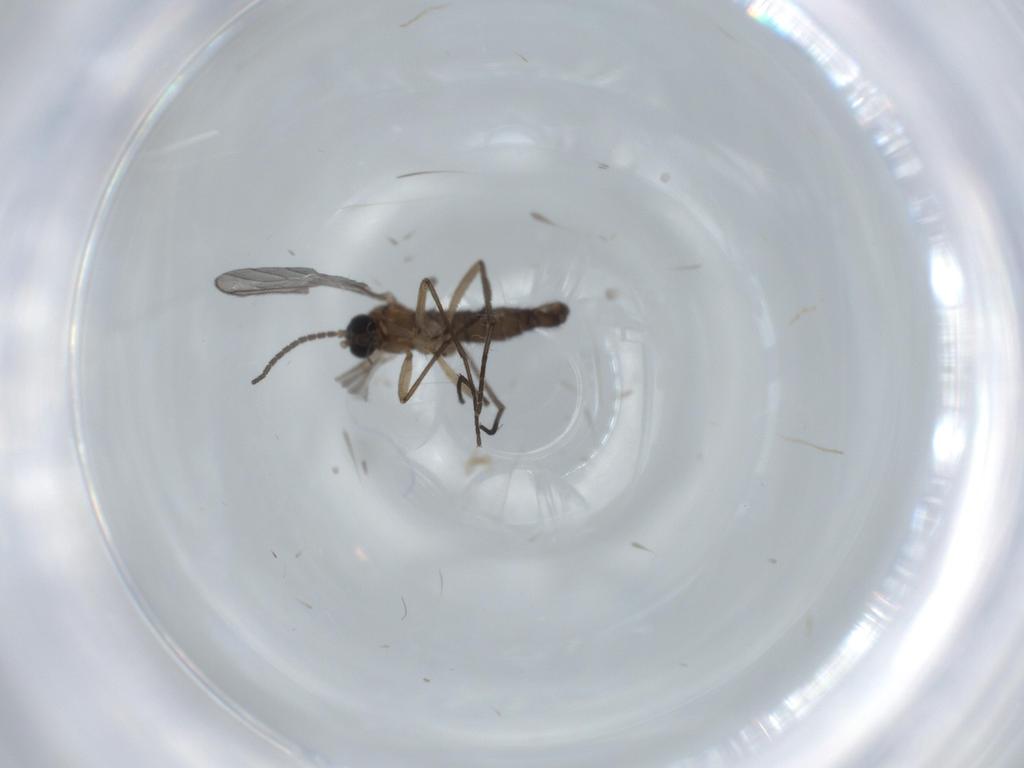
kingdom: Animalia
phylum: Arthropoda
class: Insecta
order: Diptera
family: Sciaridae
